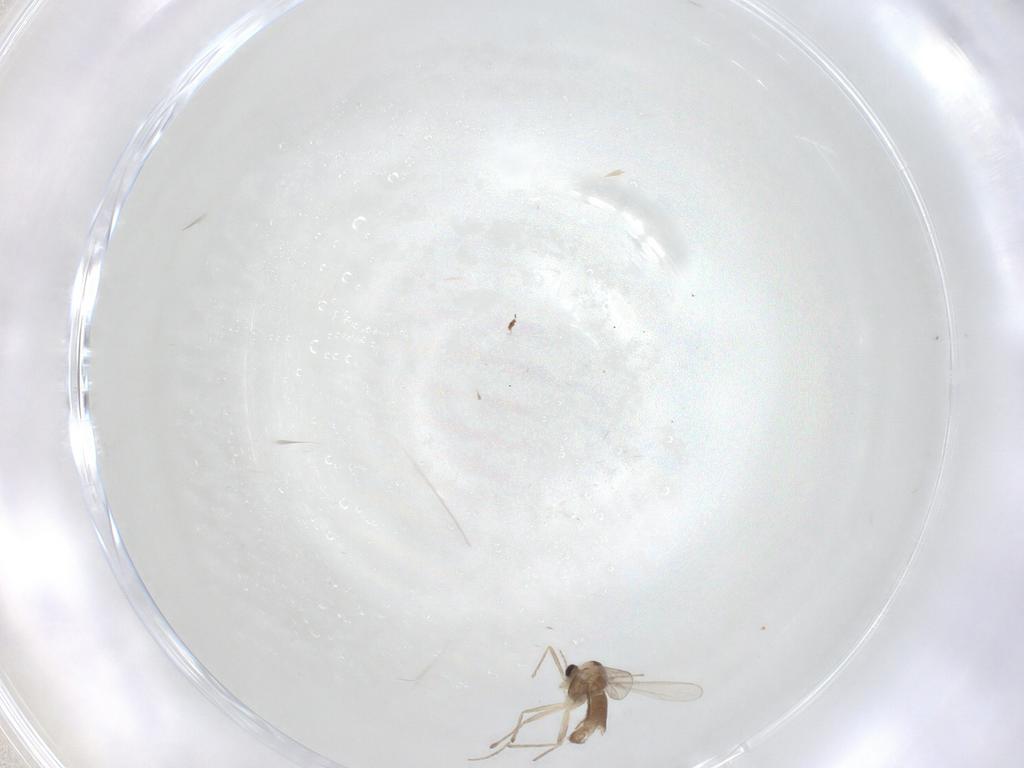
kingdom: Animalia
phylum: Arthropoda
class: Insecta
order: Diptera
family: Chironomidae
